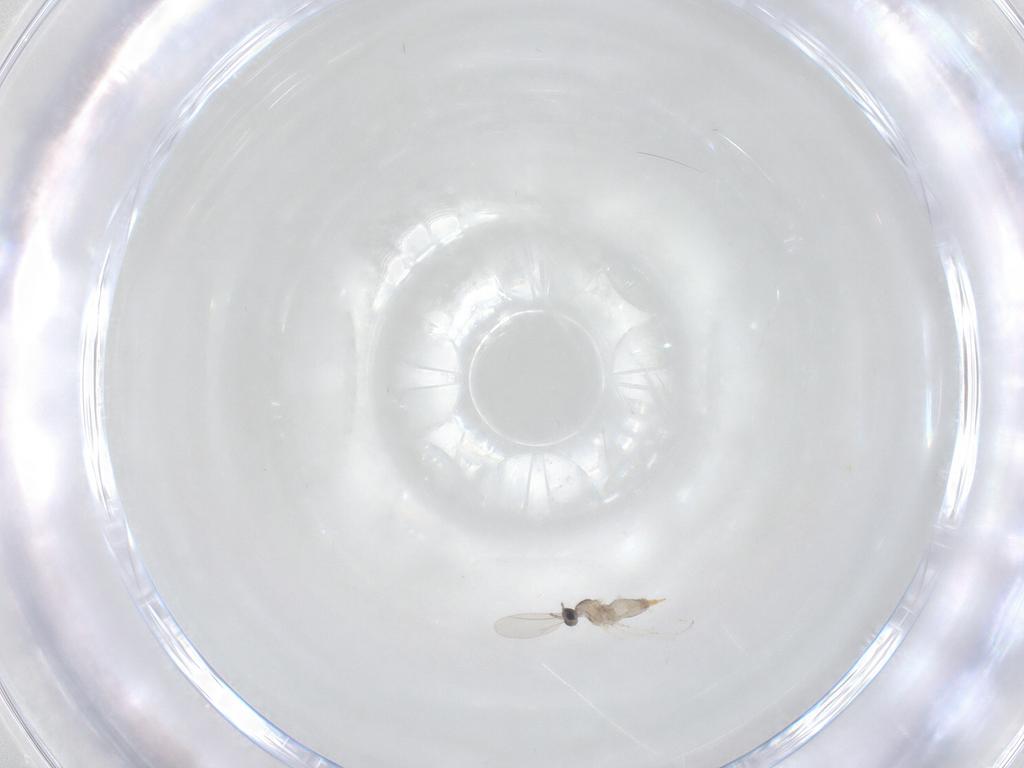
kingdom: Animalia
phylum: Arthropoda
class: Insecta
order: Diptera
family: Cecidomyiidae
